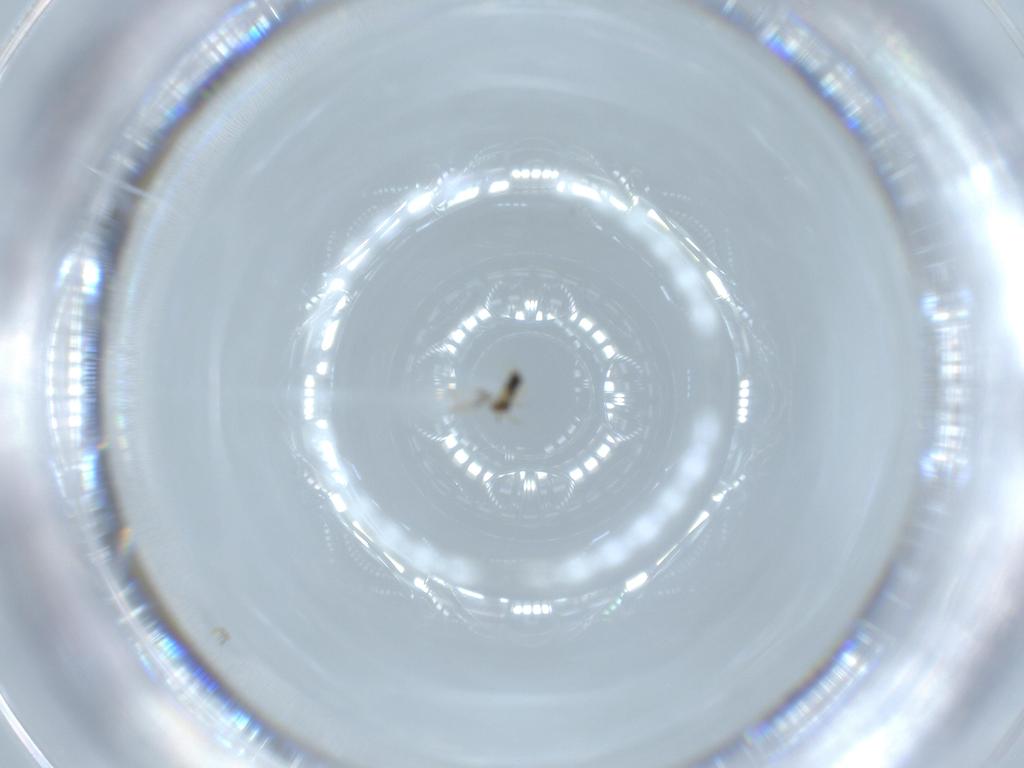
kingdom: Animalia
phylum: Arthropoda
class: Insecta
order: Hymenoptera
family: Aphelinidae
